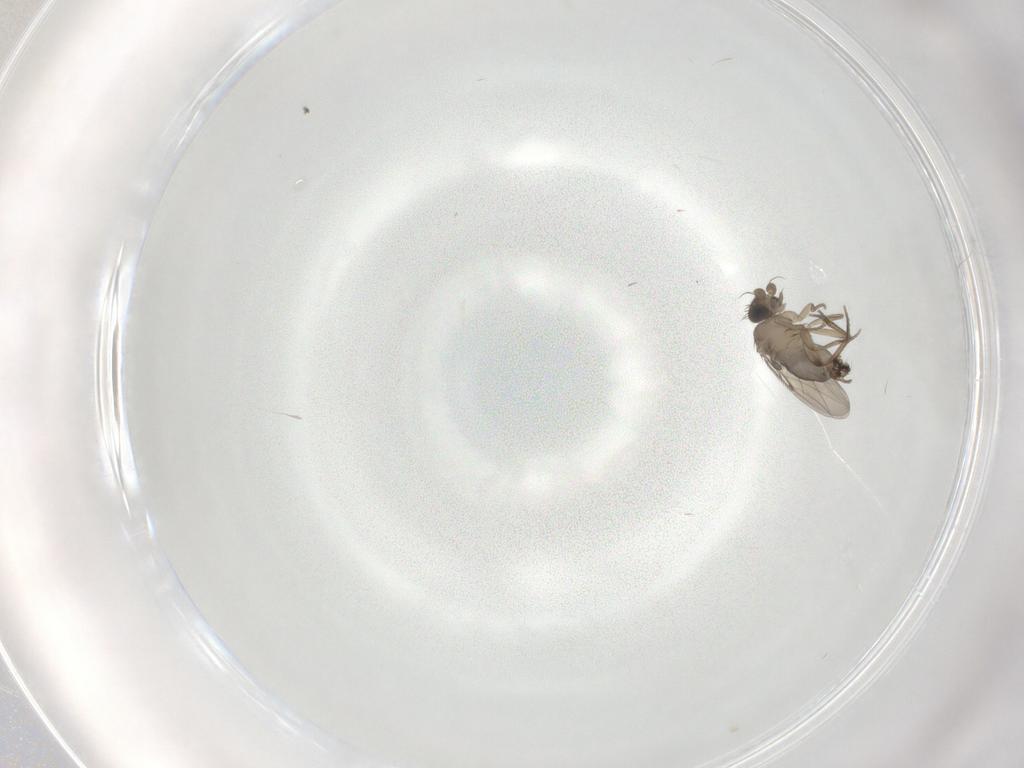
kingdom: Animalia
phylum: Arthropoda
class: Insecta
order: Diptera
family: Phoridae
